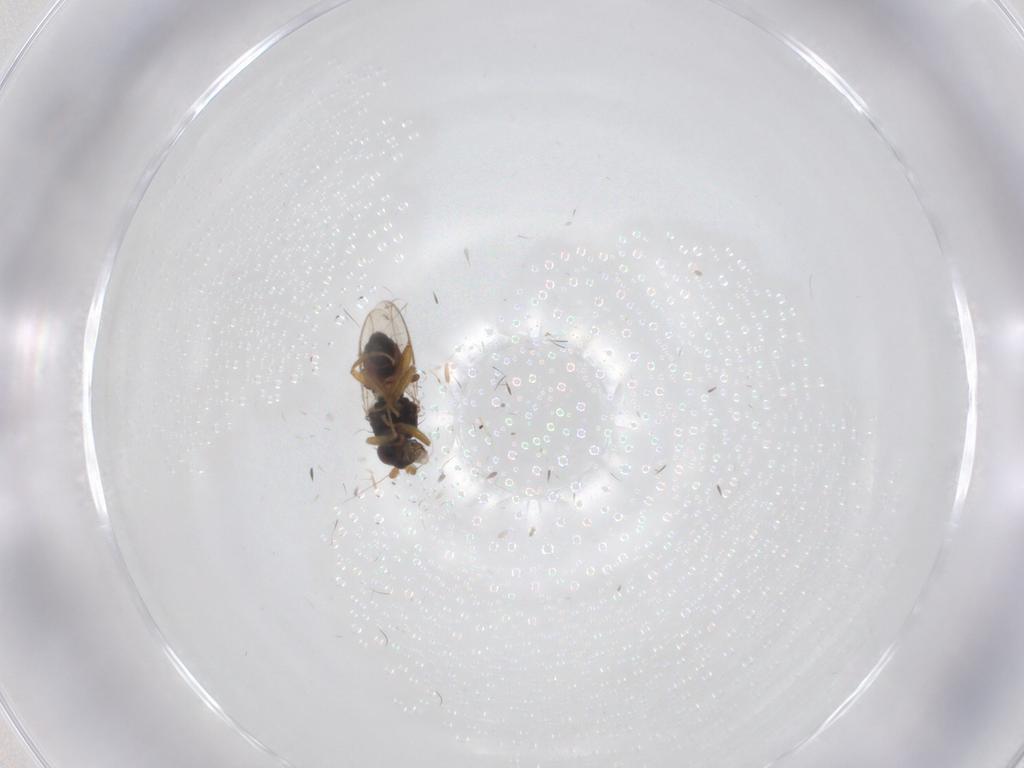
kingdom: Animalia
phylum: Arthropoda
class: Insecta
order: Diptera
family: Sphaeroceridae
